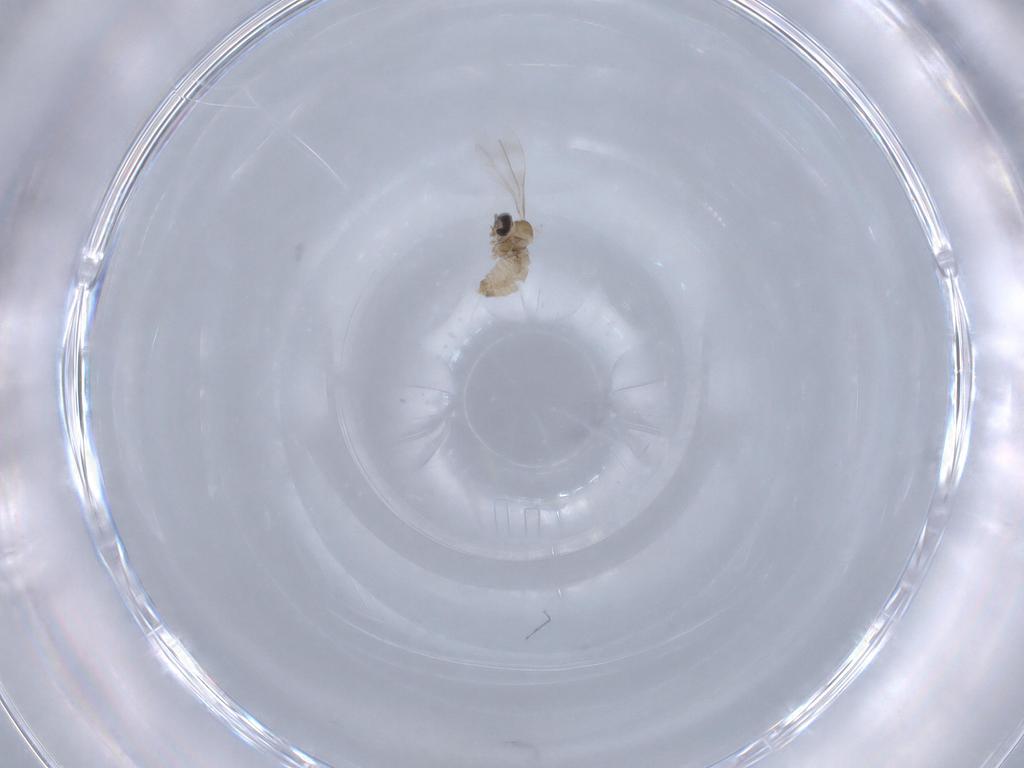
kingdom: Animalia
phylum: Arthropoda
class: Insecta
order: Diptera
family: Cecidomyiidae
